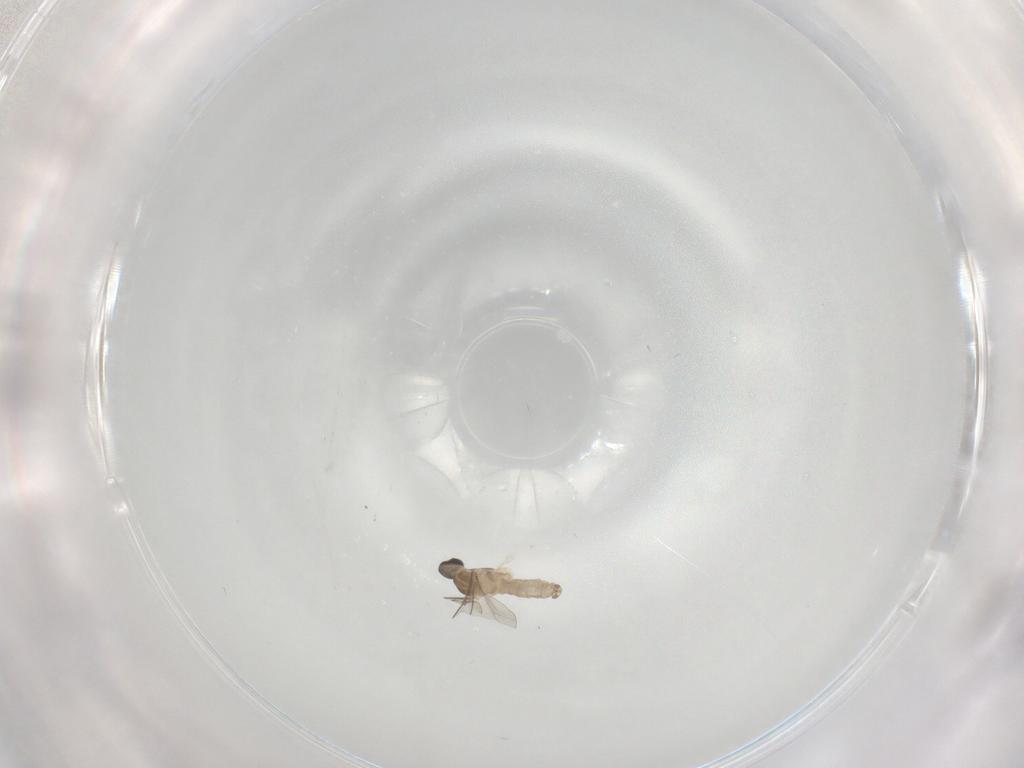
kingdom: Animalia
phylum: Arthropoda
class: Insecta
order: Diptera
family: Cecidomyiidae
